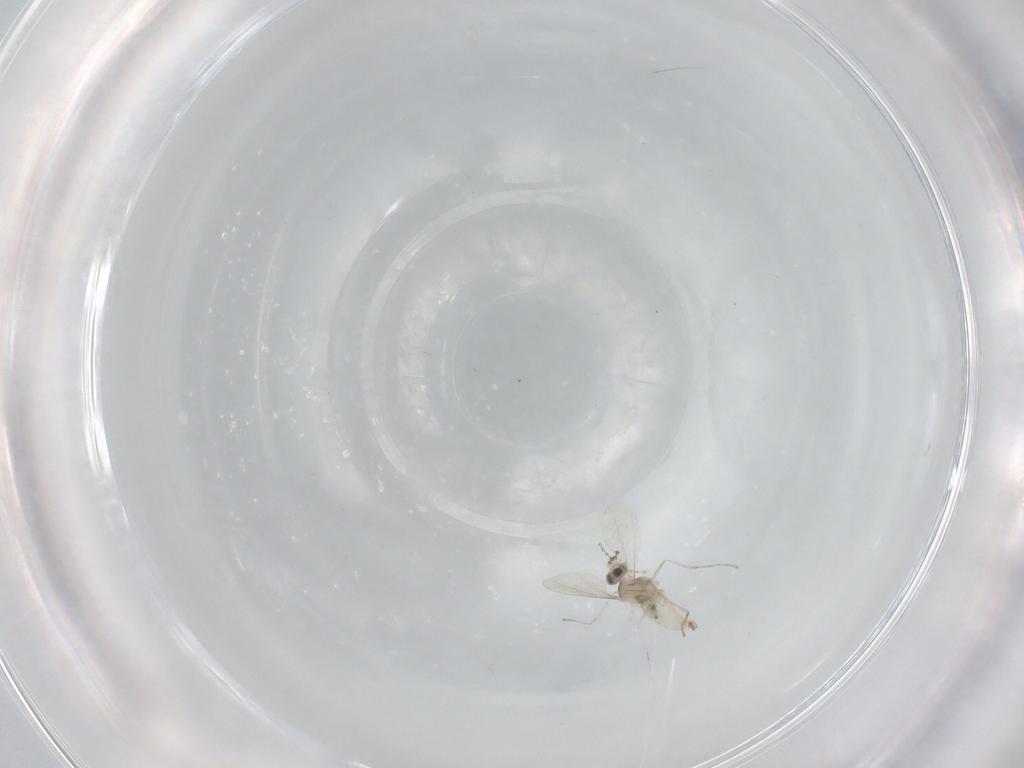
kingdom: Animalia
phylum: Arthropoda
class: Insecta
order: Diptera
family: Cecidomyiidae
